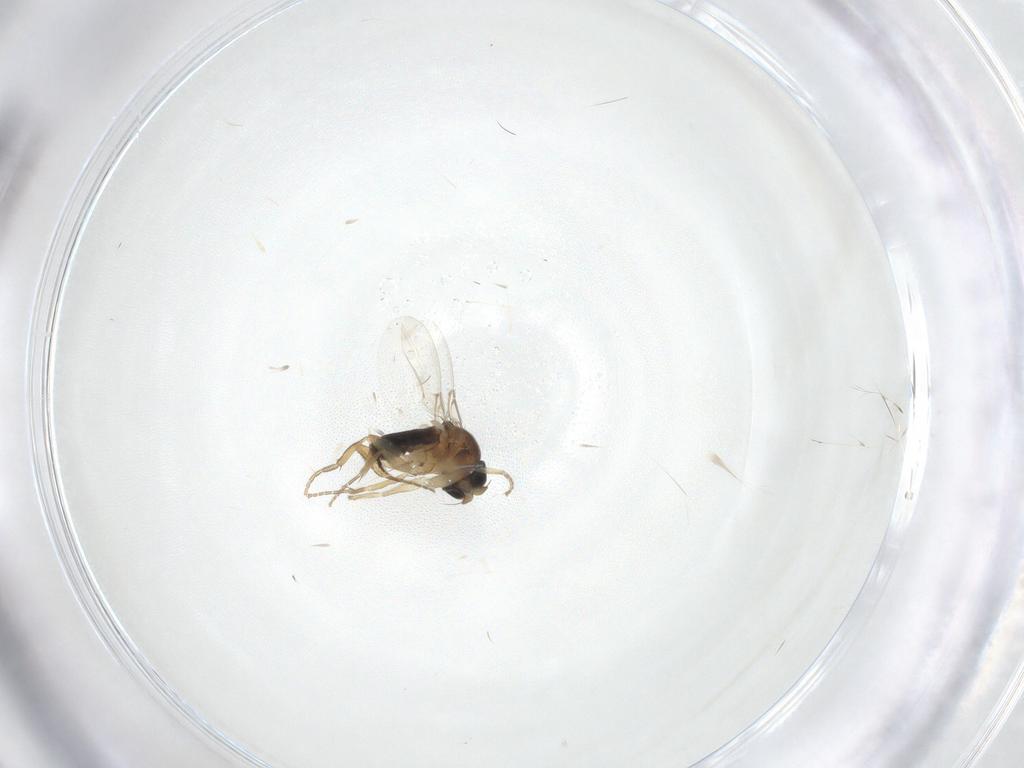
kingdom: Animalia
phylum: Arthropoda
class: Insecta
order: Diptera
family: Phoridae
